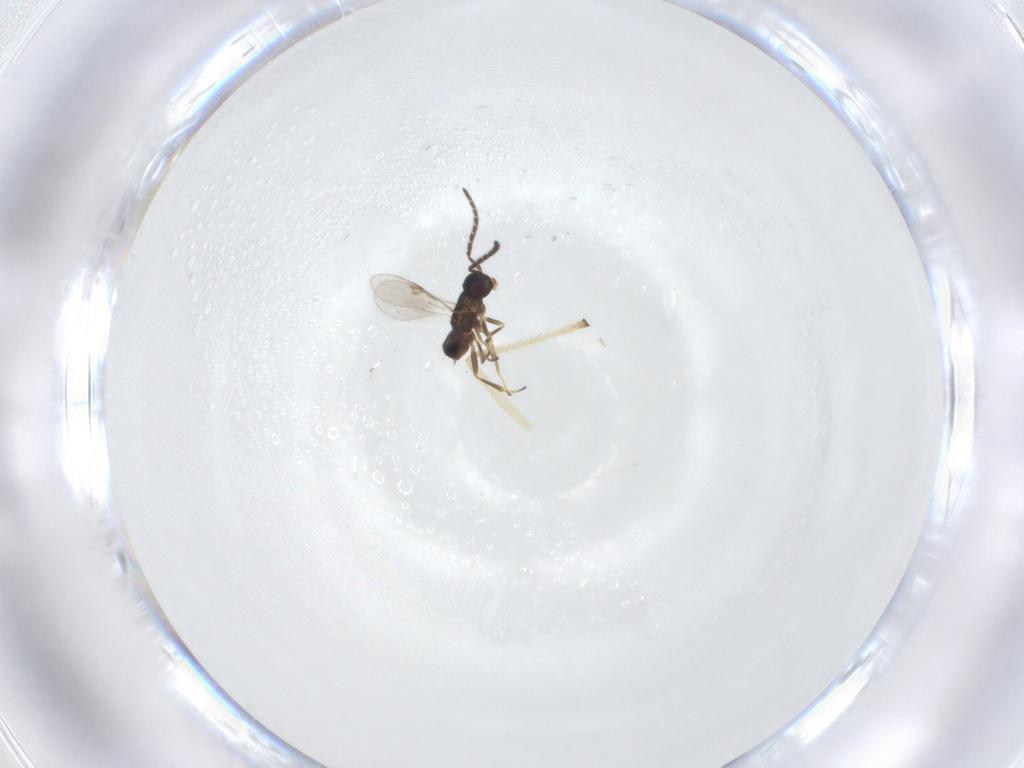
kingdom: Animalia
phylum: Arthropoda
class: Insecta
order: Hymenoptera
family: Encyrtidae
